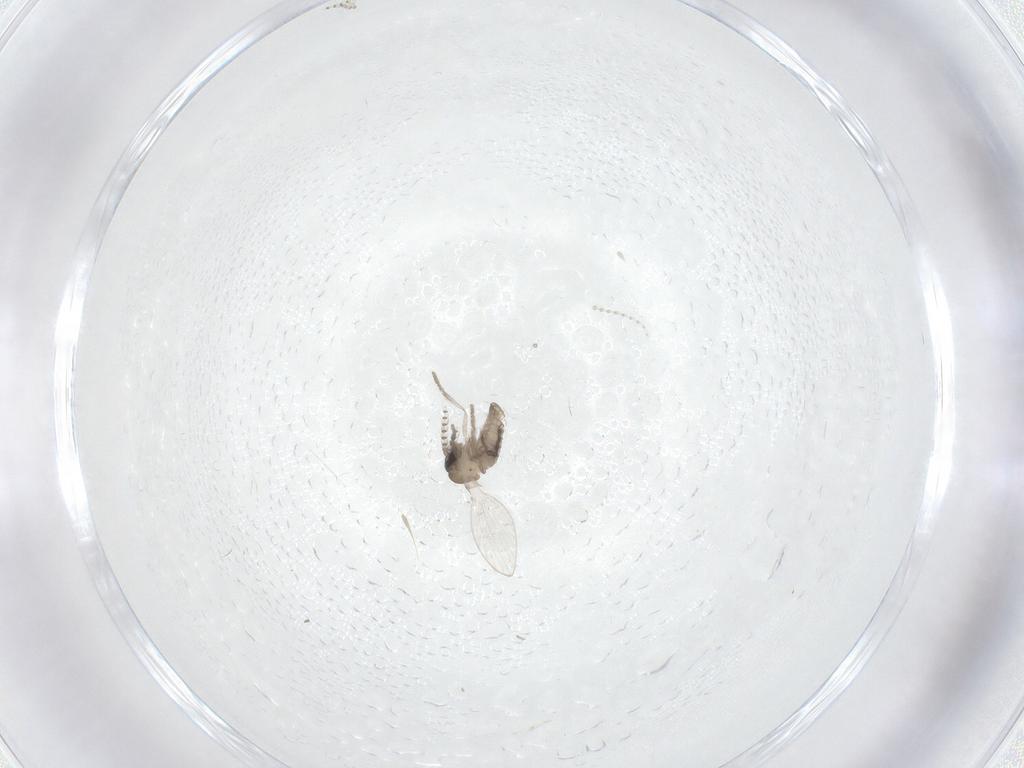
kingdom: Animalia
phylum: Arthropoda
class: Insecta
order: Diptera
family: Psychodidae
